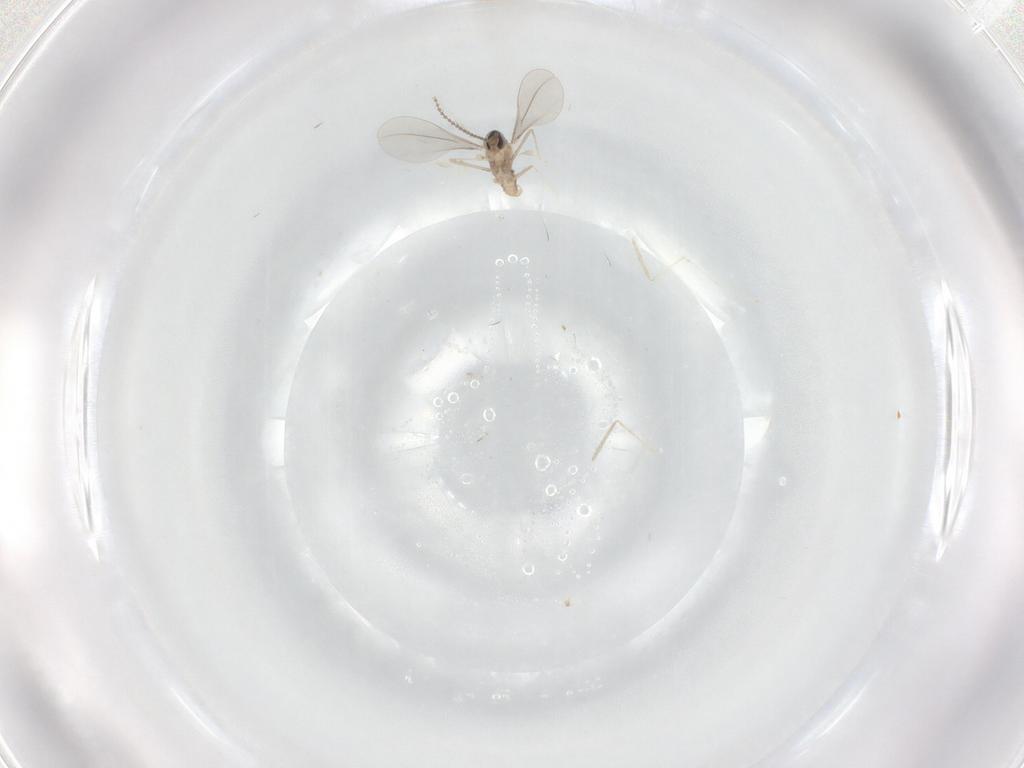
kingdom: Animalia
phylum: Arthropoda
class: Insecta
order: Diptera
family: Cecidomyiidae
